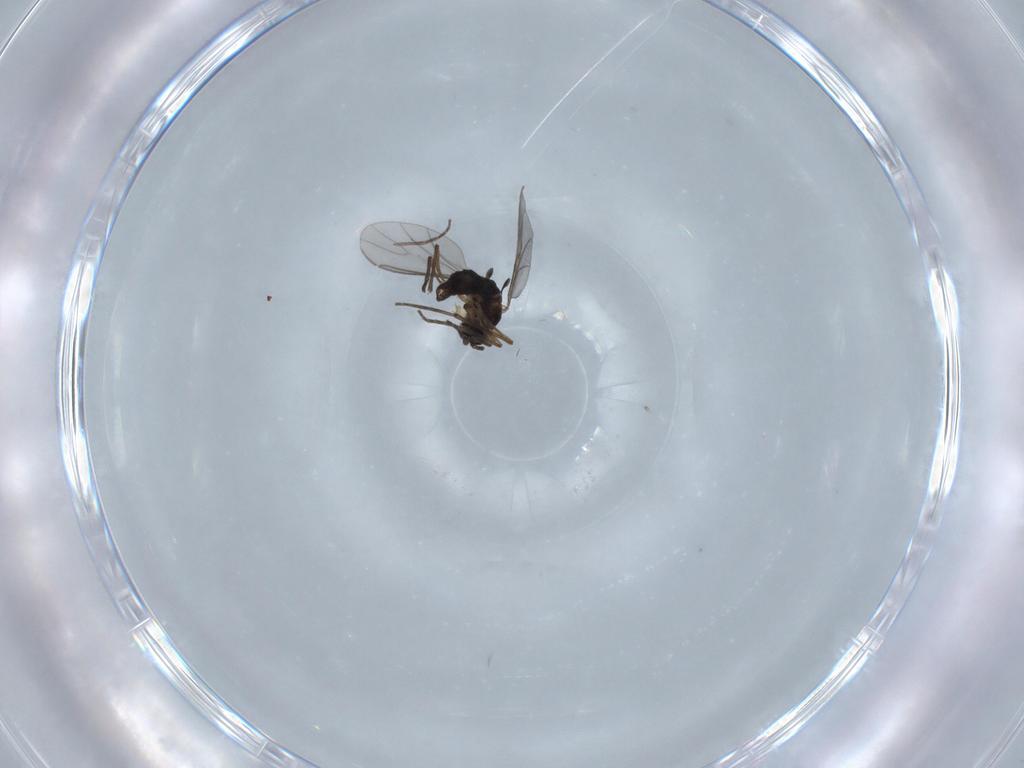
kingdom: Animalia
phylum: Arthropoda
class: Insecta
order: Diptera
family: Sciaridae
